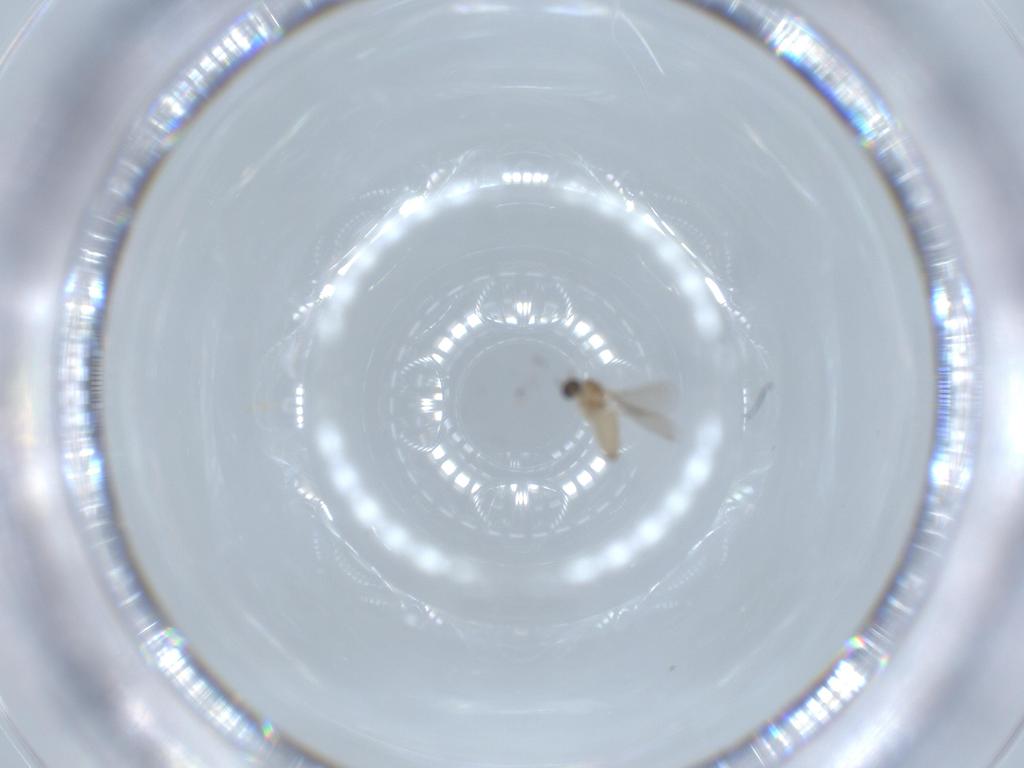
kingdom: Animalia
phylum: Arthropoda
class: Insecta
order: Diptera
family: Cecidomyiidae
